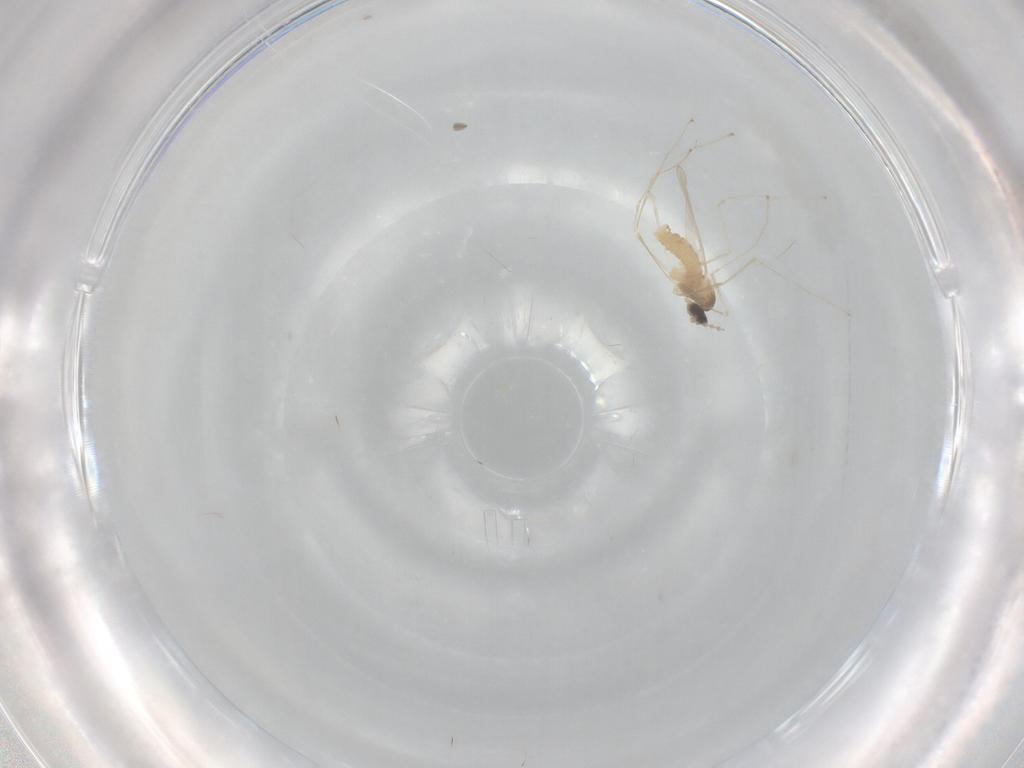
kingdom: Animalia
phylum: Arthropoda
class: Insecta
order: Diptera
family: Cecidomyiidae
